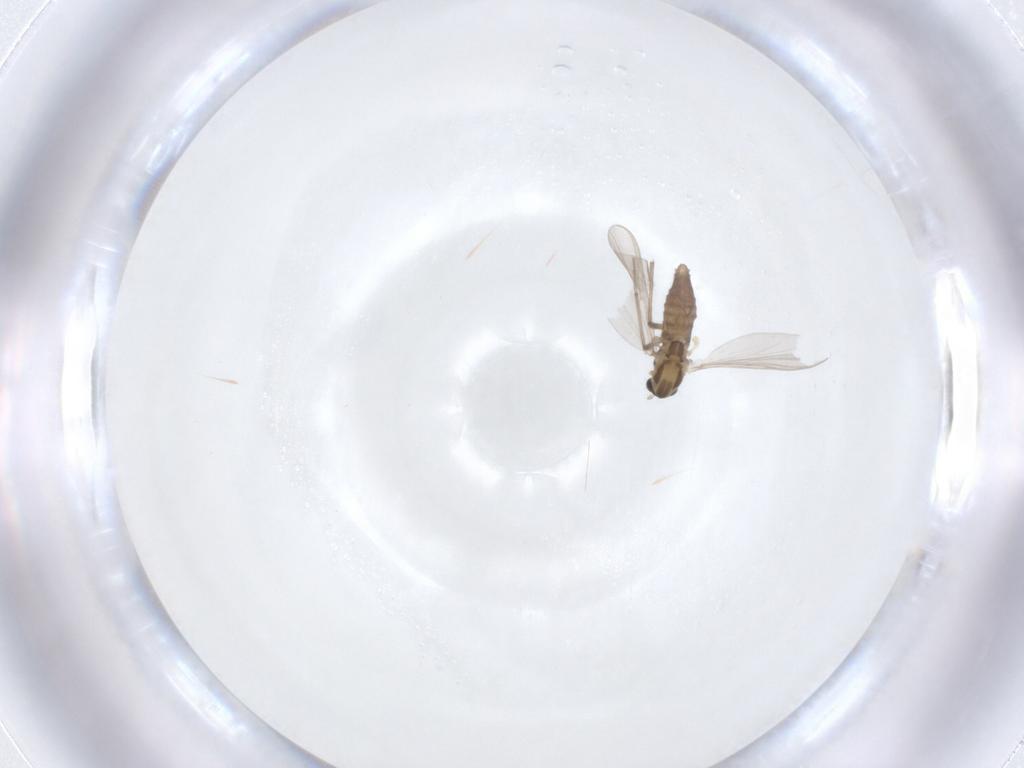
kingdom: Animalia
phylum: Arthropoda
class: Insecta
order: Diptera
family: Chironomidae
